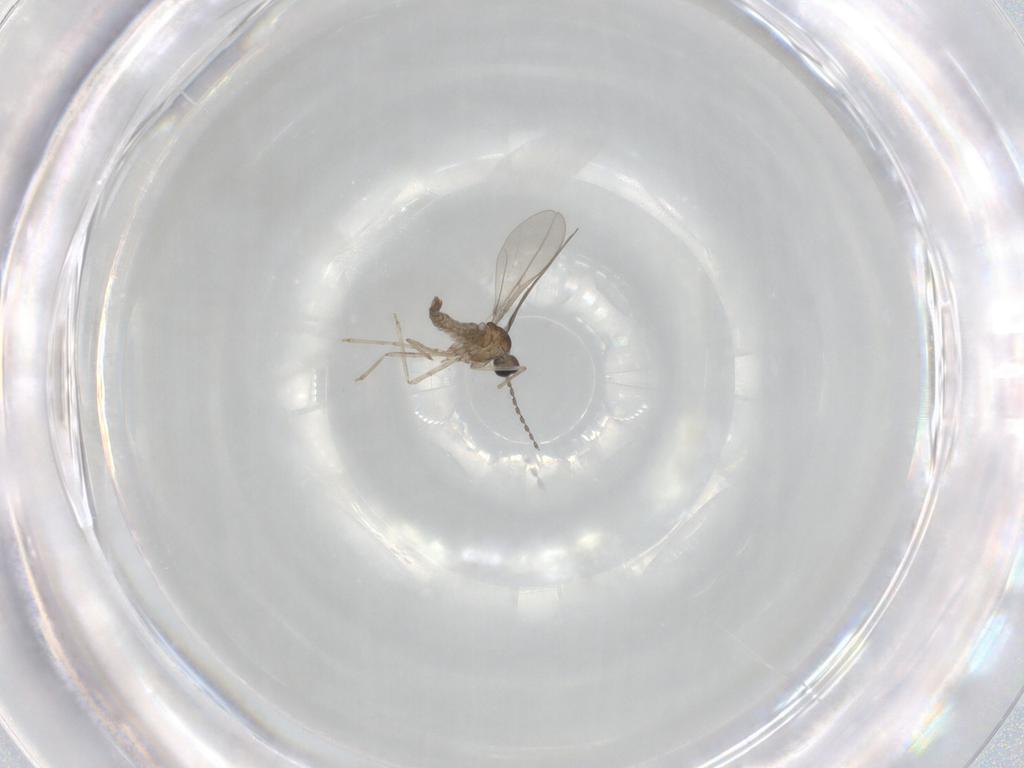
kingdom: Animalia
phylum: Arthropoda
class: Insecta
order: Diptera
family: Cecidomyiidae
